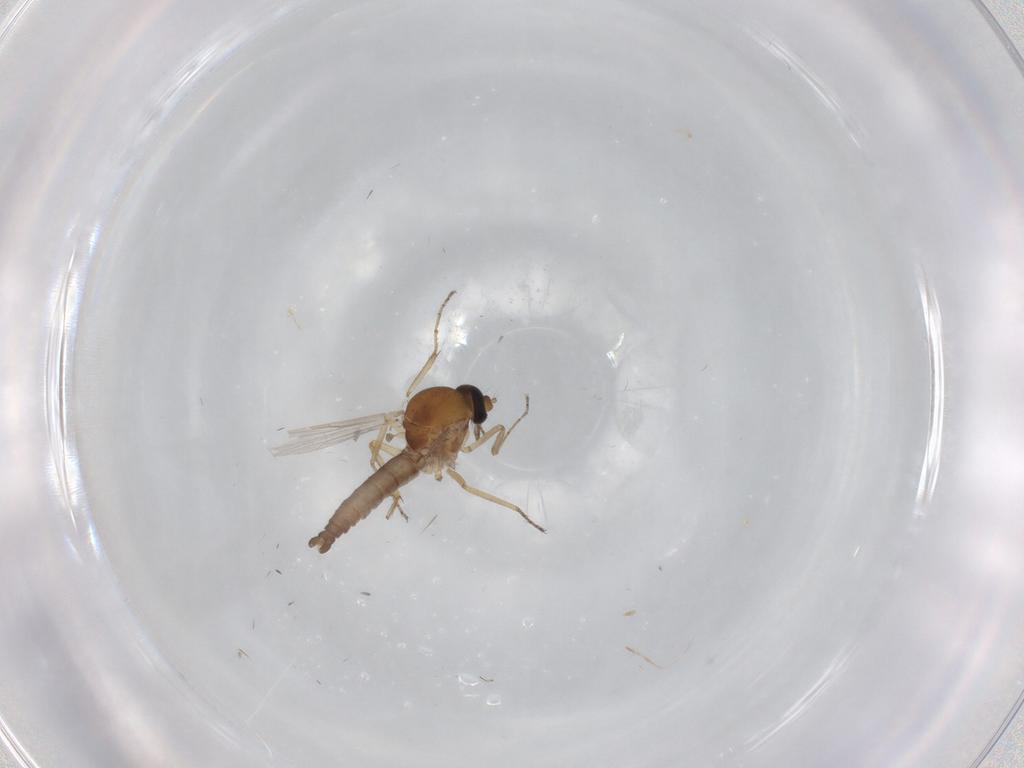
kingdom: Animalia
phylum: Arthropoda
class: Insecta
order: Diptera
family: Ceratopogonidae
